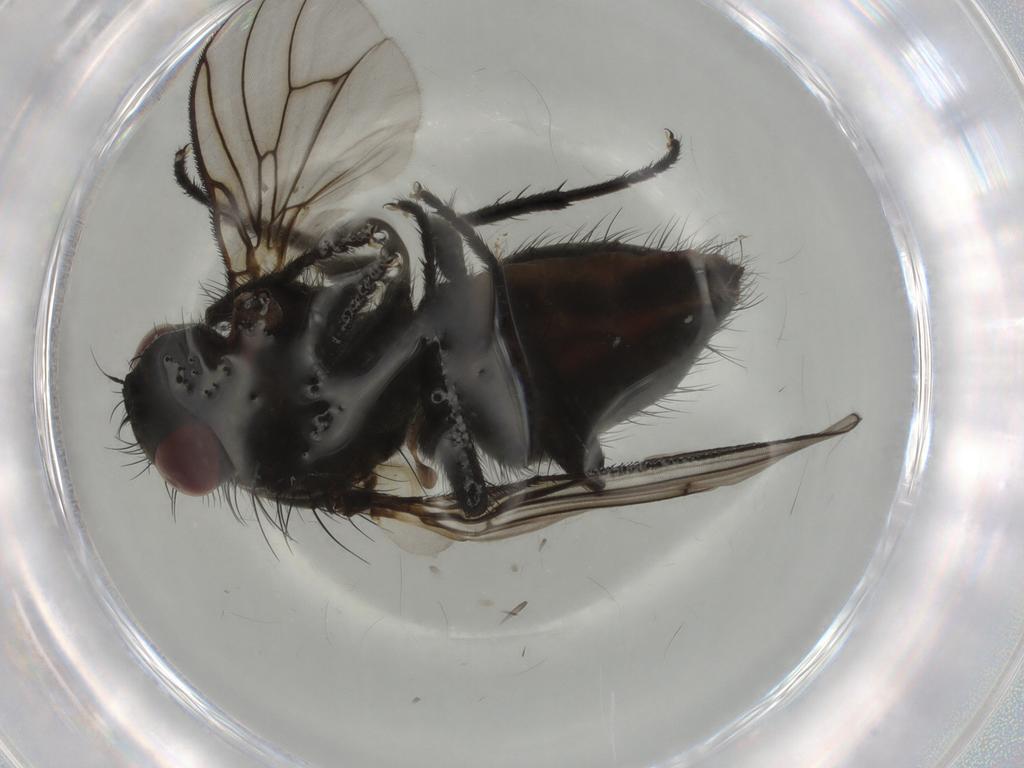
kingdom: Animalia
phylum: Arthropoda
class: Insecta
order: Diptera
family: Muscidae
